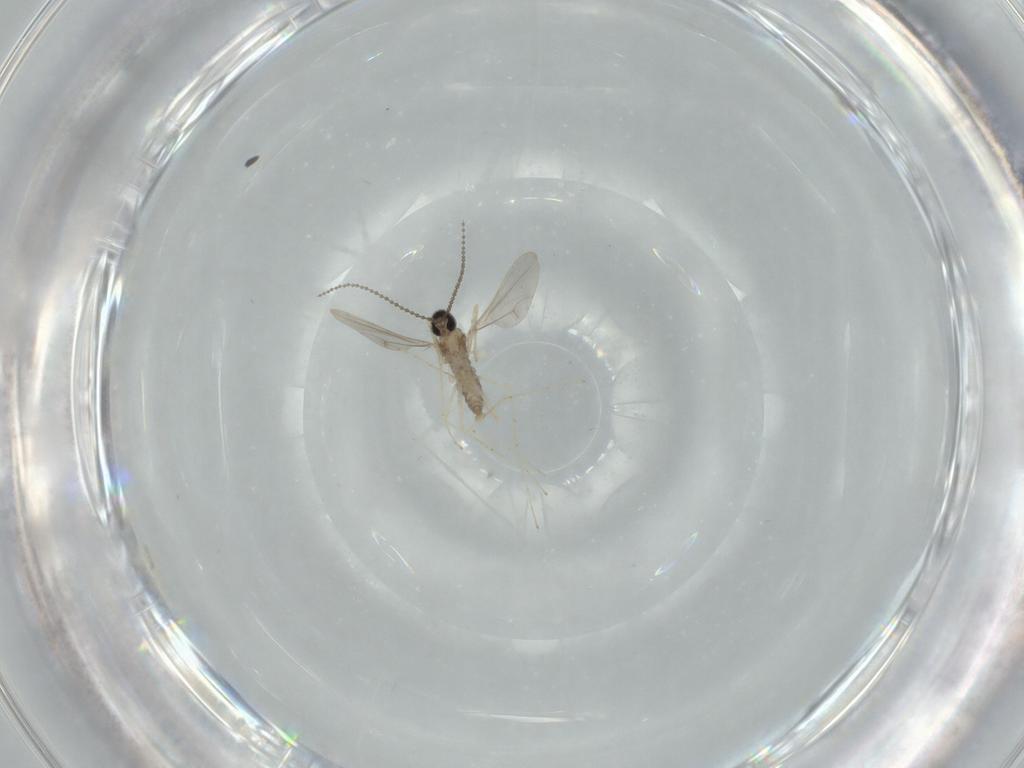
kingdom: Animalia
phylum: Arthropoda
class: Insecta
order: Diptera
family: Cecidomyiidae
